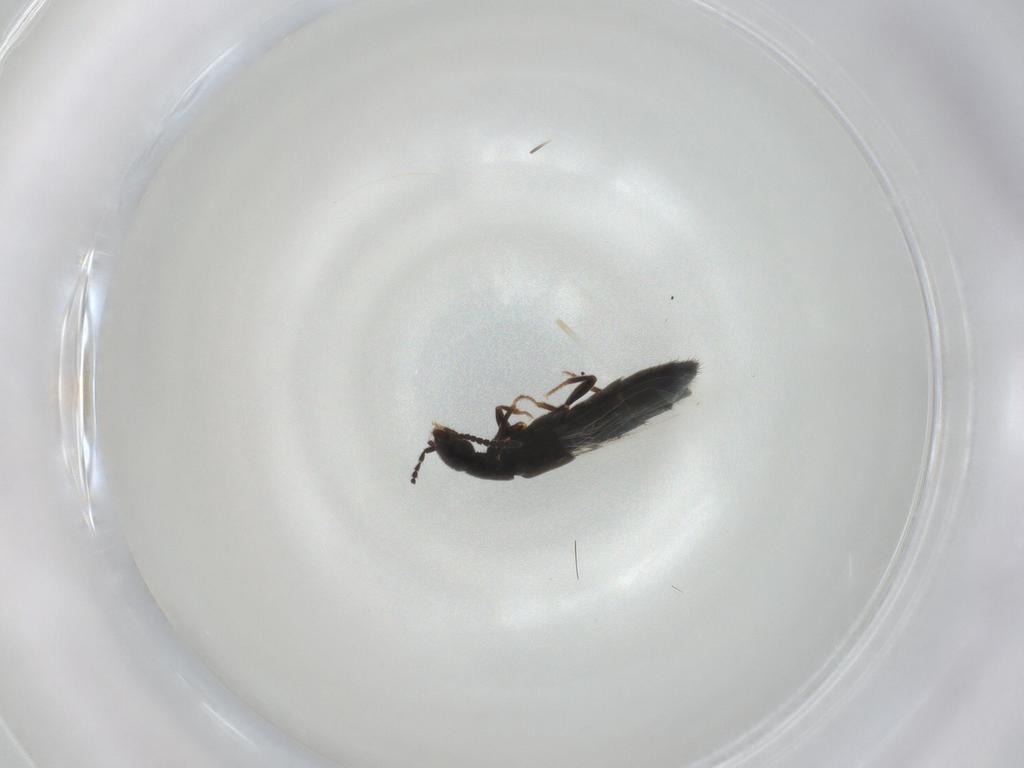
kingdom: Animalia
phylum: Arthropoda
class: Insecta
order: Coleoptera
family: Staphylinidae
